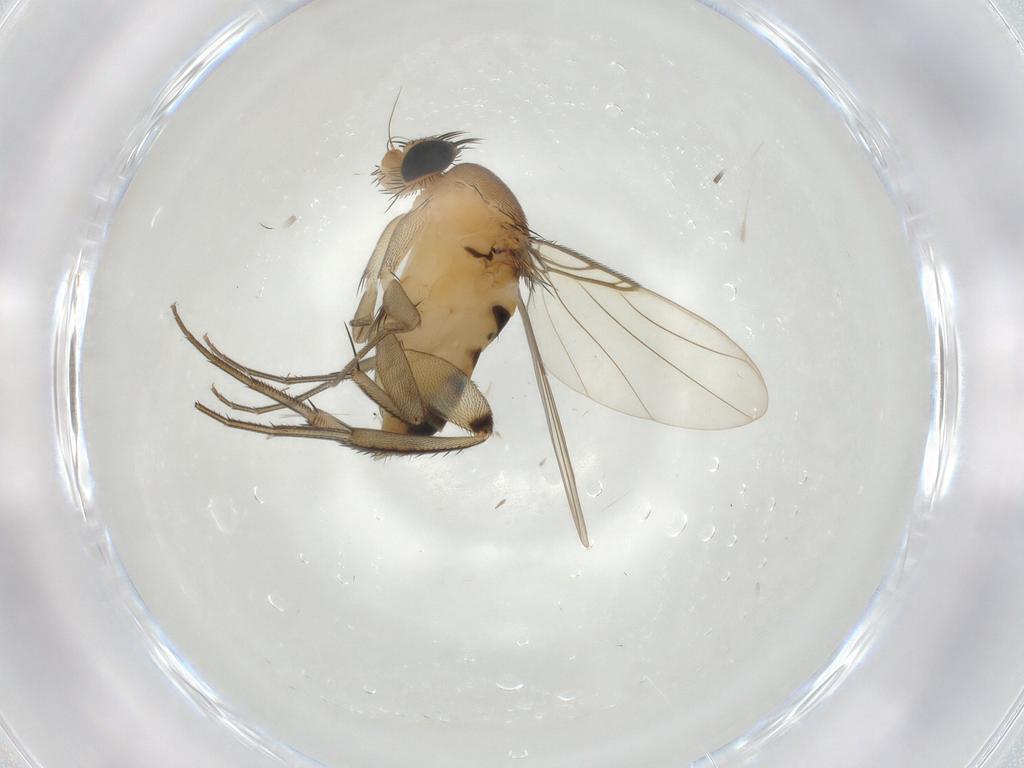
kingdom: Animalia
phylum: Arthropoda
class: Insecta
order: Diptera
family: Phoridae
